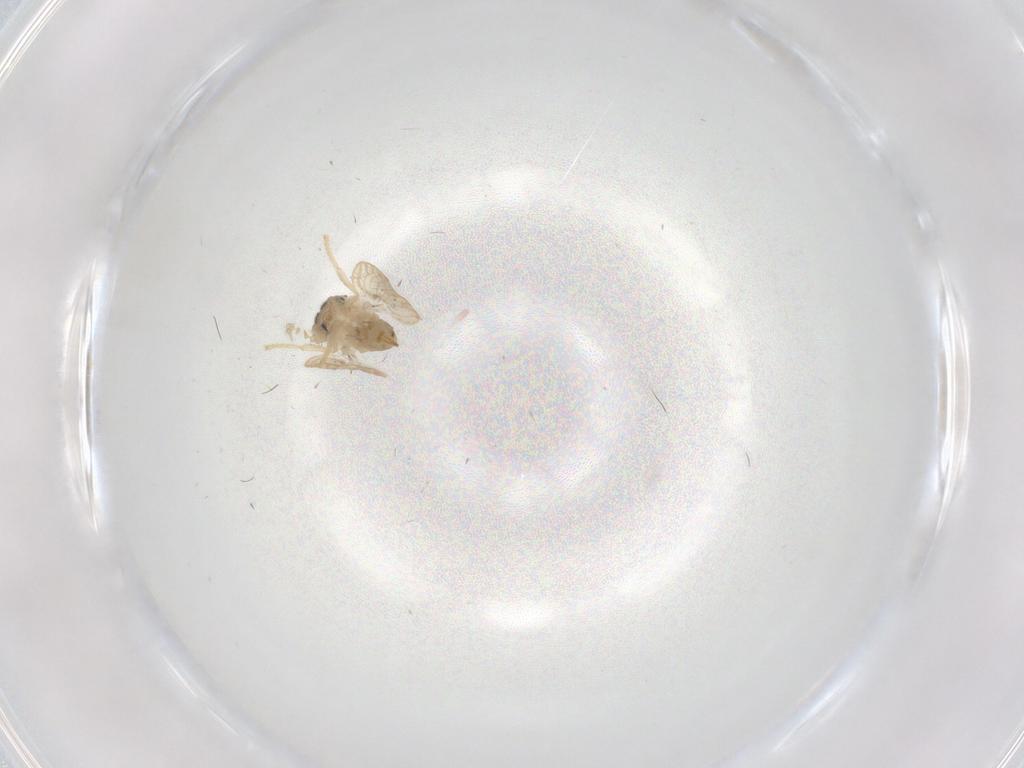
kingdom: Animalia
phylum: Arthropoda
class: Insecta
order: Diptera
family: Psychodidae
